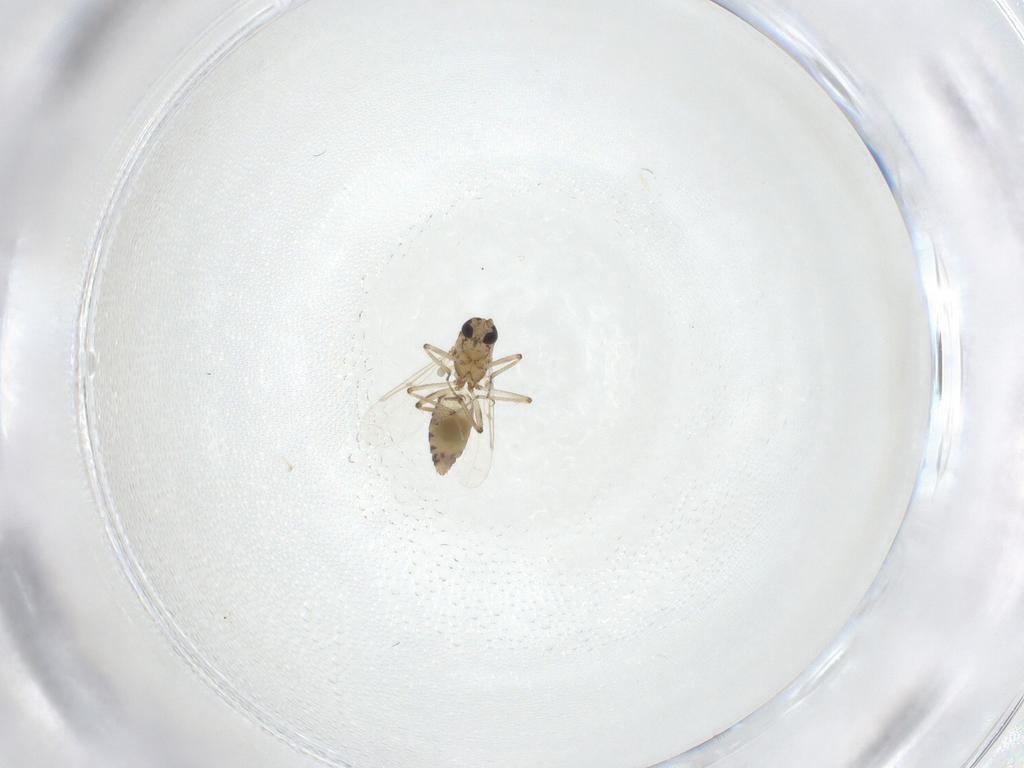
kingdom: Animalia
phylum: Arthropoda
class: Insecta
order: Diptera
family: Ceratopogonidae
